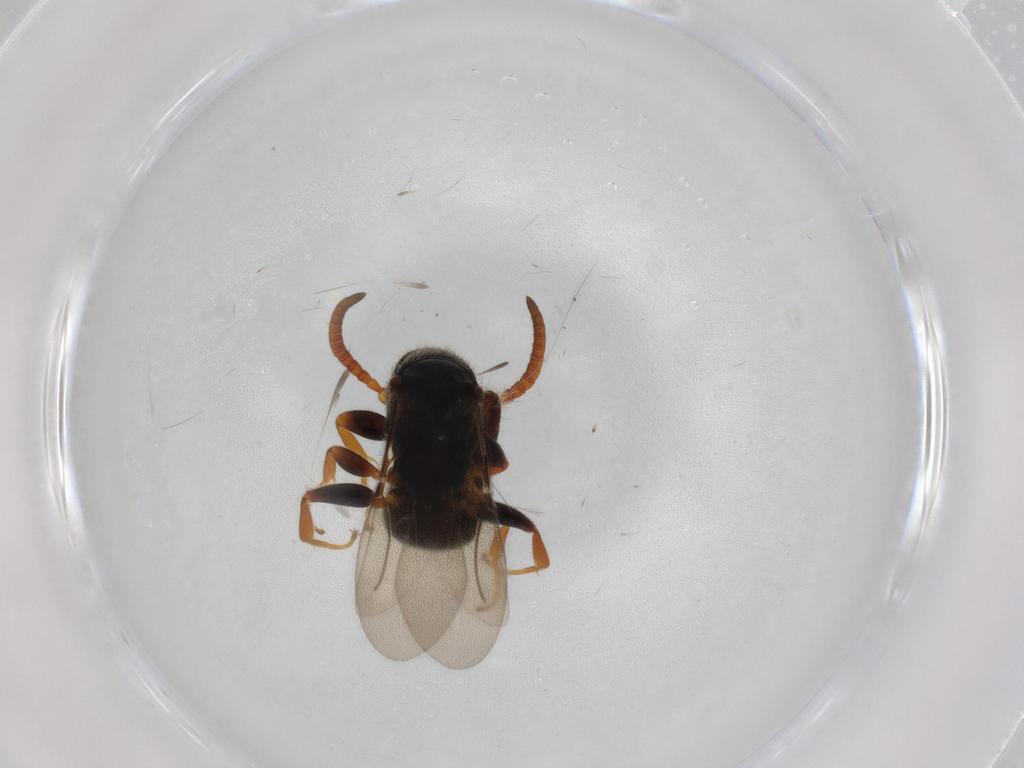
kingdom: Animalia
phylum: Arthropoda
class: Insecta
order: Hymenoptera
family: Bethylidae
